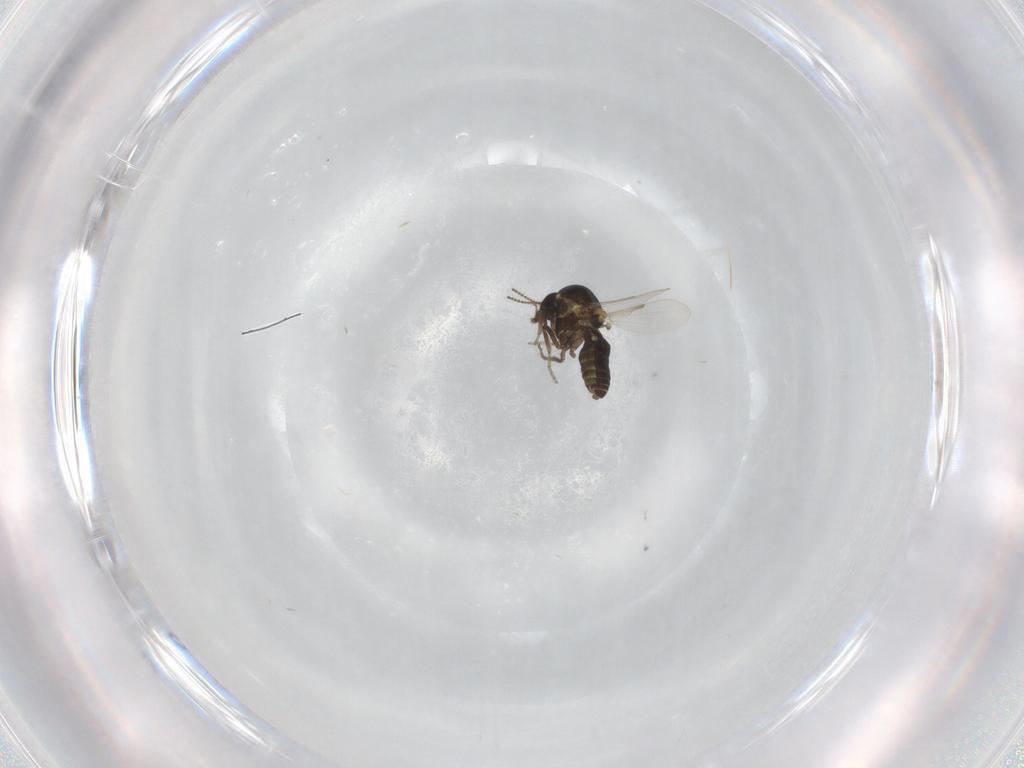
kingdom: Animalia
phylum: Arthropoda
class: Insecta
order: Diptera
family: Ceratopogonidae
